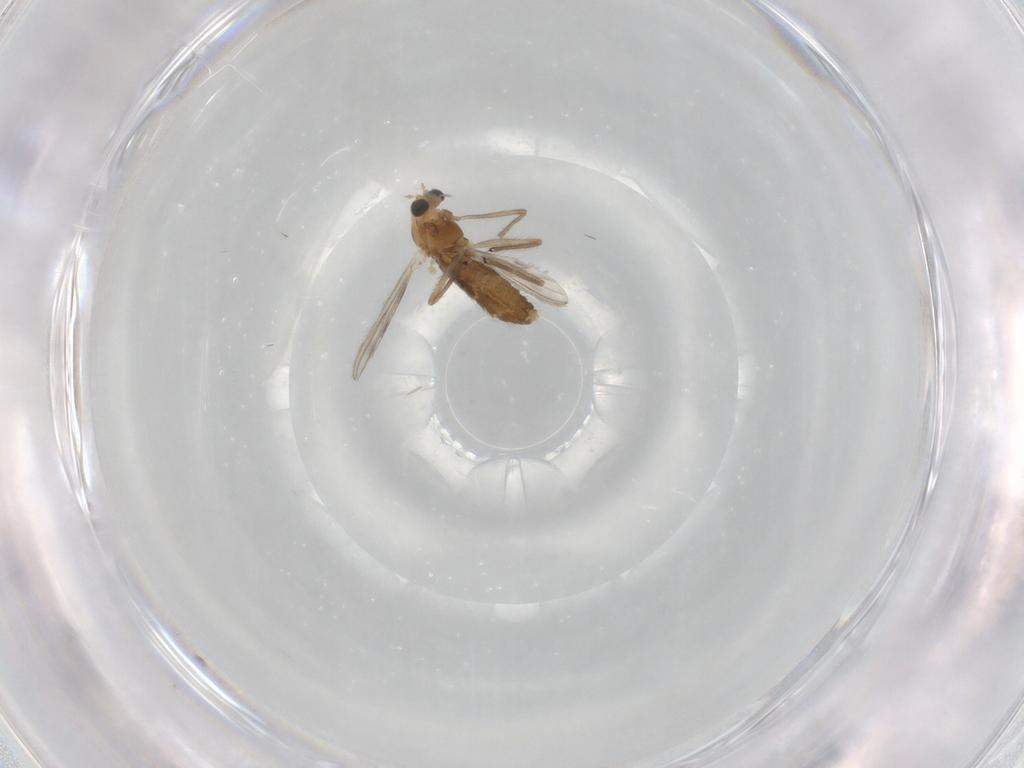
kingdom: Animalia
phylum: Arthropoda
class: Insecta
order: Diptera
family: Chironomidae
